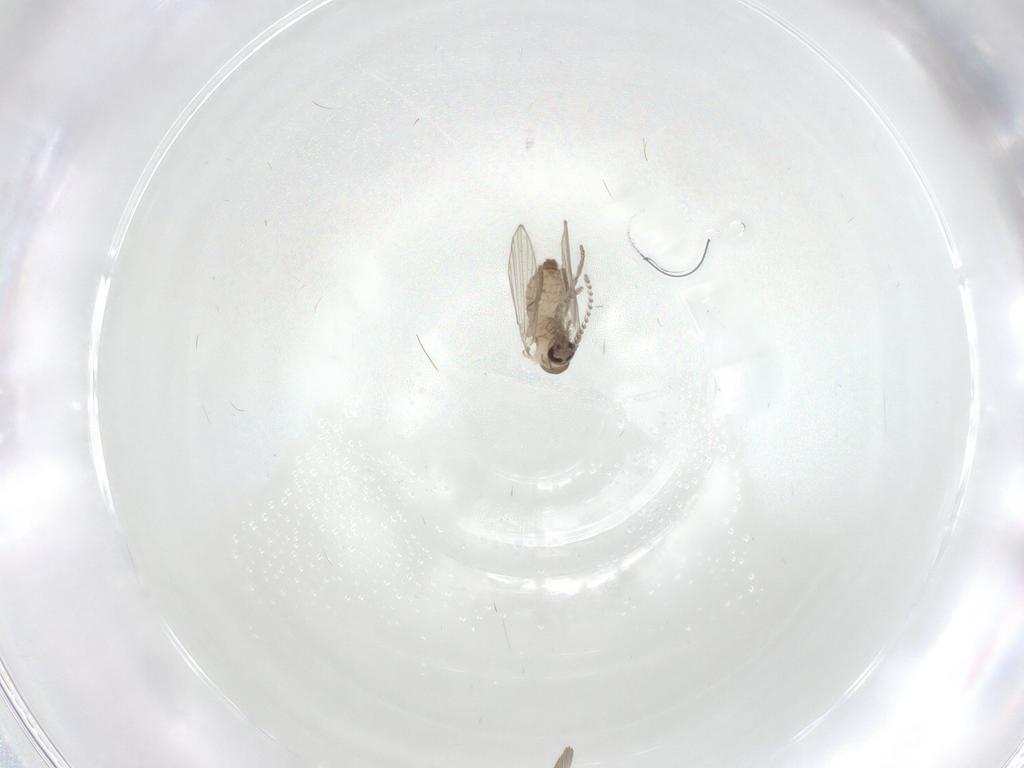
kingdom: Animalia
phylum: Arthropoda
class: Insecta
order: Diptera
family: Psychodidae
